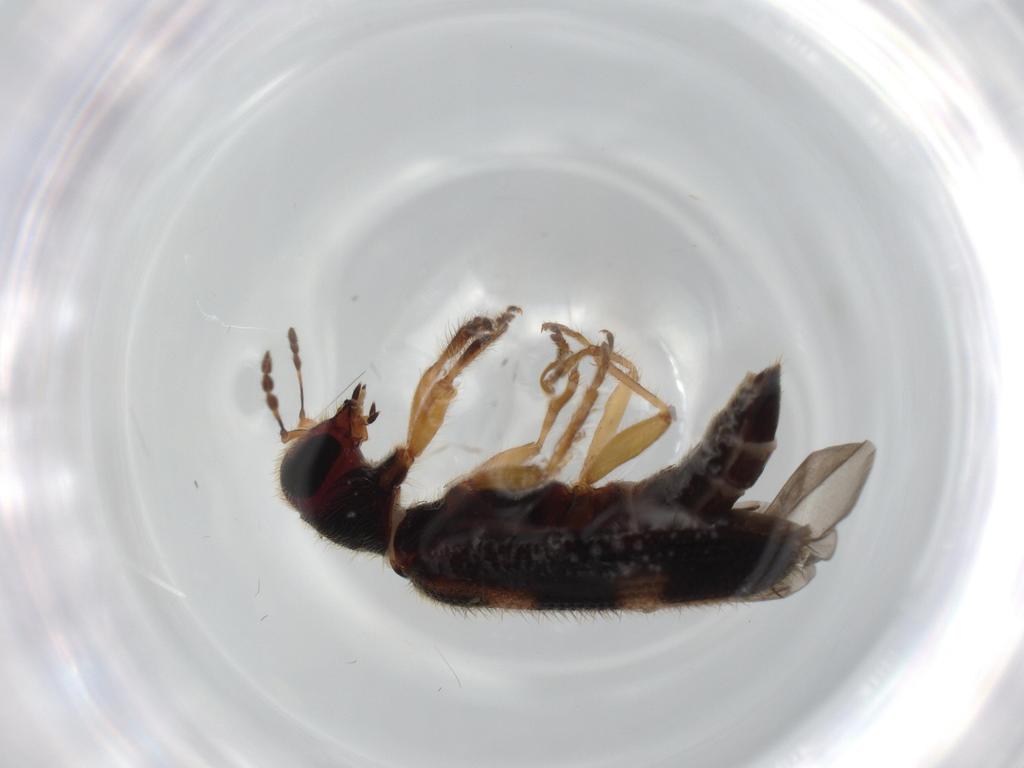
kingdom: Animalia
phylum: Arthropoda
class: Insecta
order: Coleoptera
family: Cleridae
